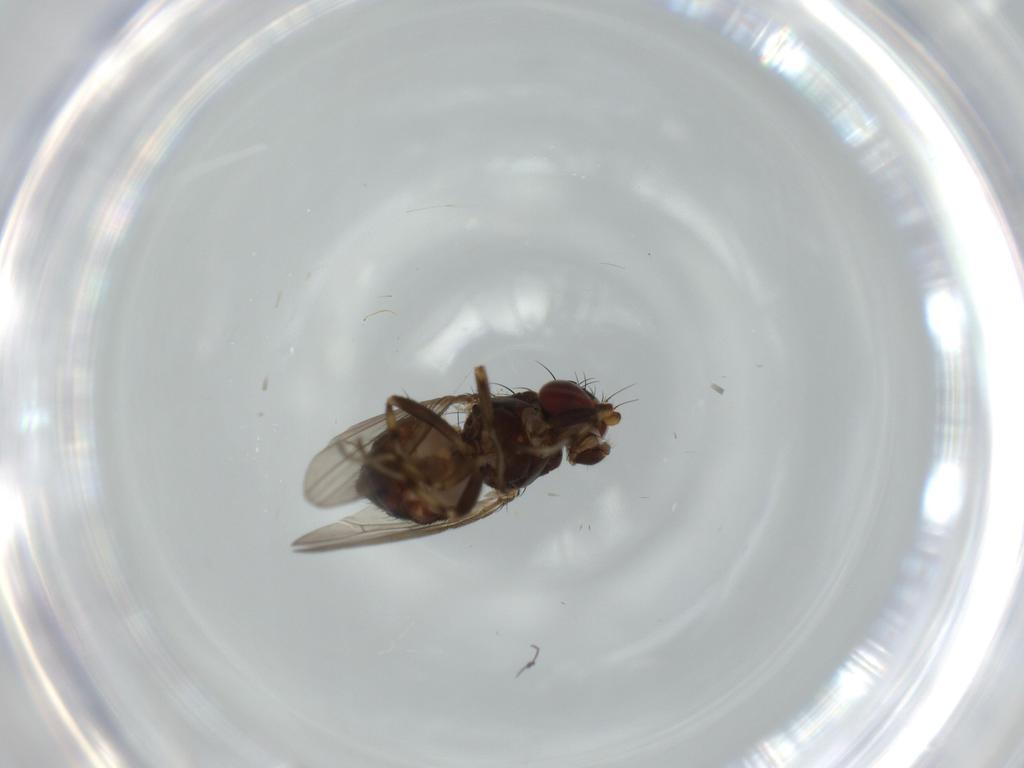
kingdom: Animalia
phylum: Arthropoda
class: Insecta
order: Diptera
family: Heleomyzidae
